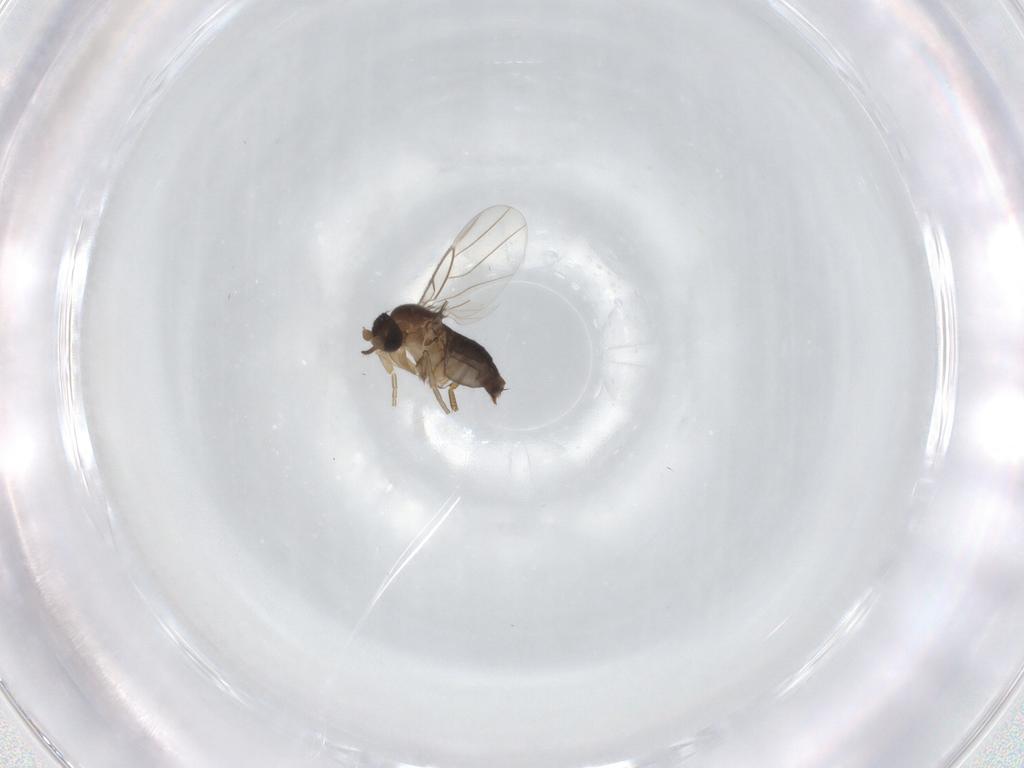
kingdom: Animalia
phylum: Arthropoda
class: Insecta
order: Diptera
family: Phoridae
